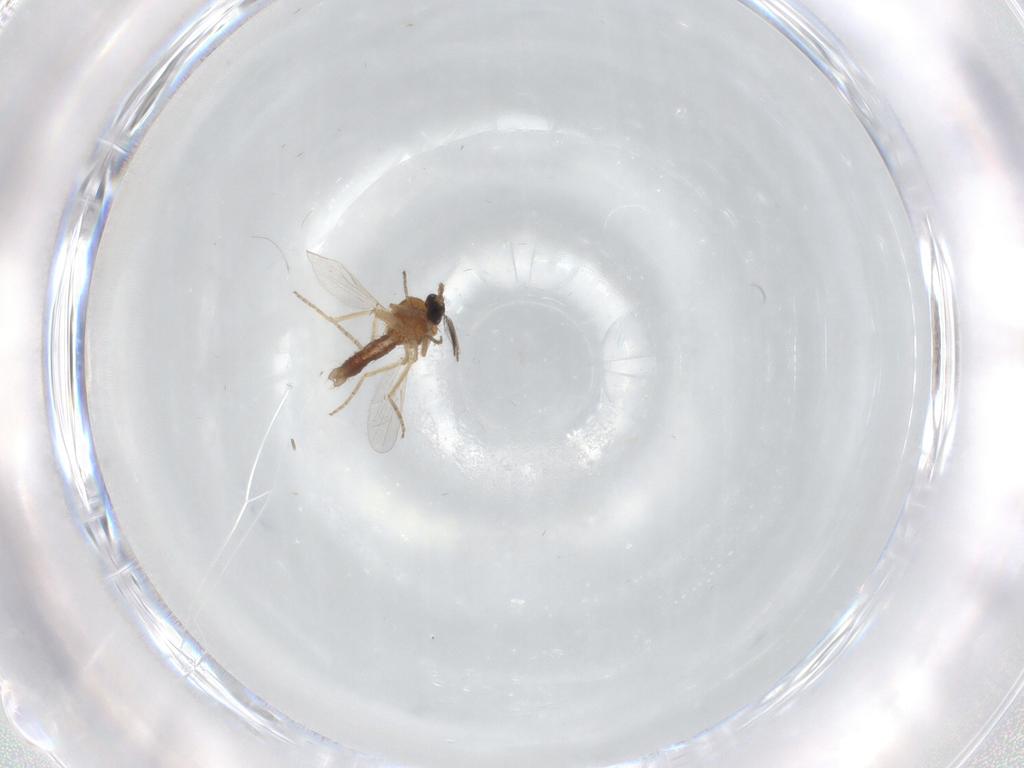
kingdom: Animalia
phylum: Arthropoda
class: Insecta
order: Diptera
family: Ceratopogonidae
